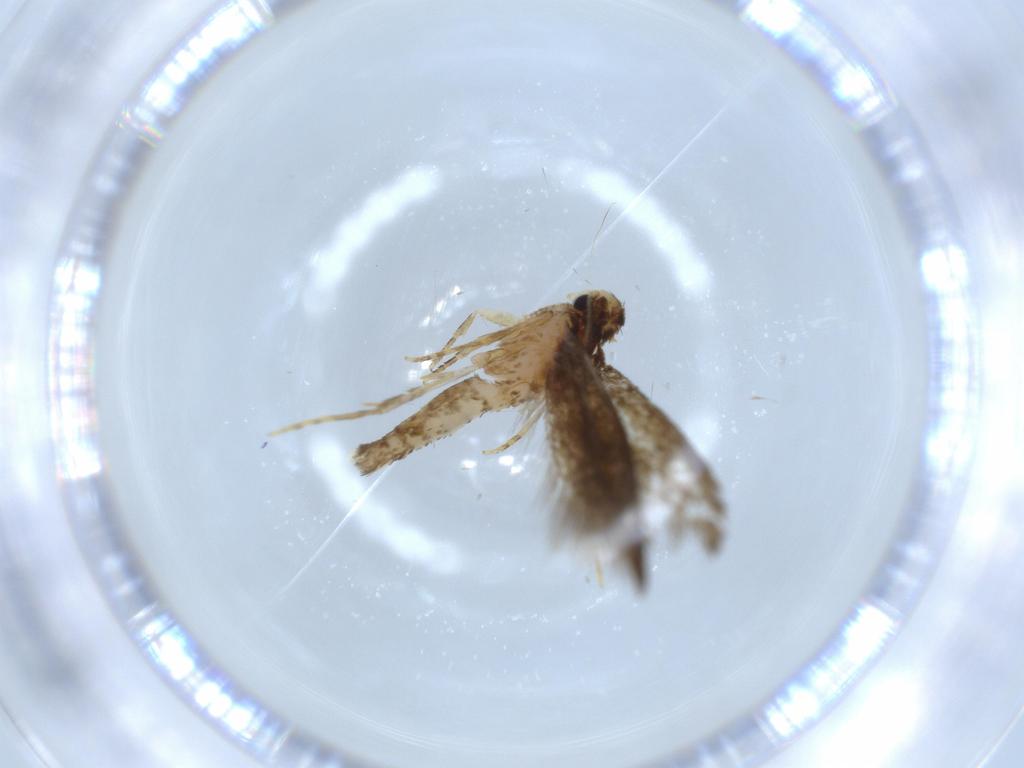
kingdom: Animalia
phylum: Arthropoda
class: Insecta
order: Lepidoptera
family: Tineidae
